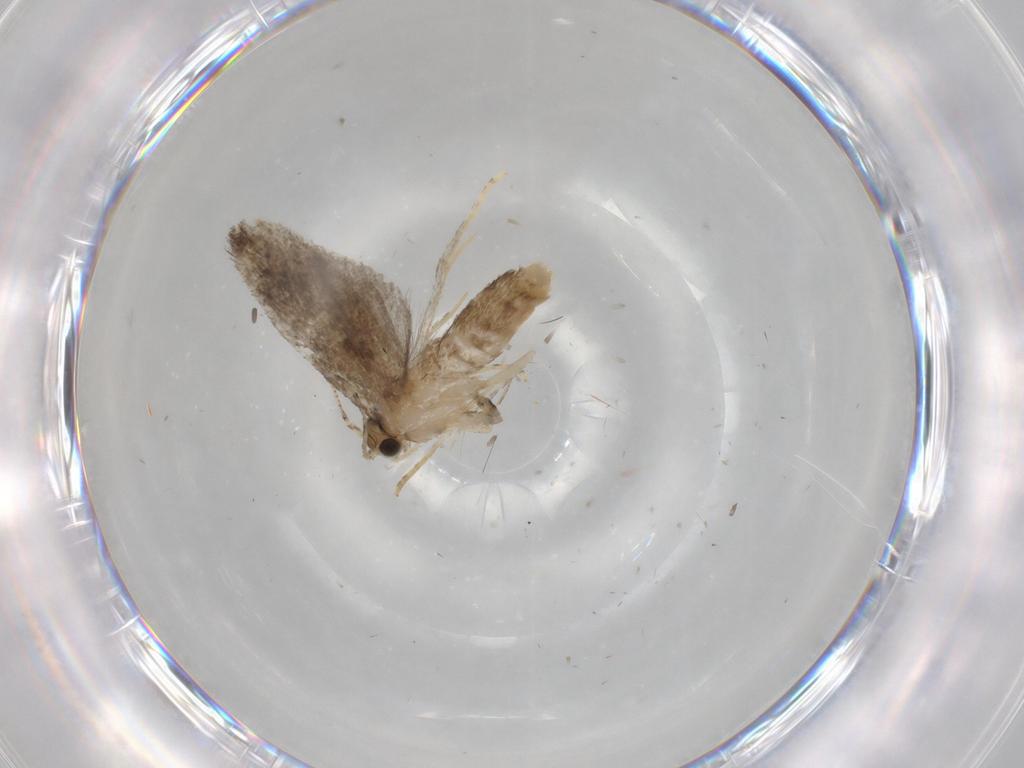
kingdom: Animalia
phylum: Arthropoda
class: Insecta
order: Lepidoptera
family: Tineidae
